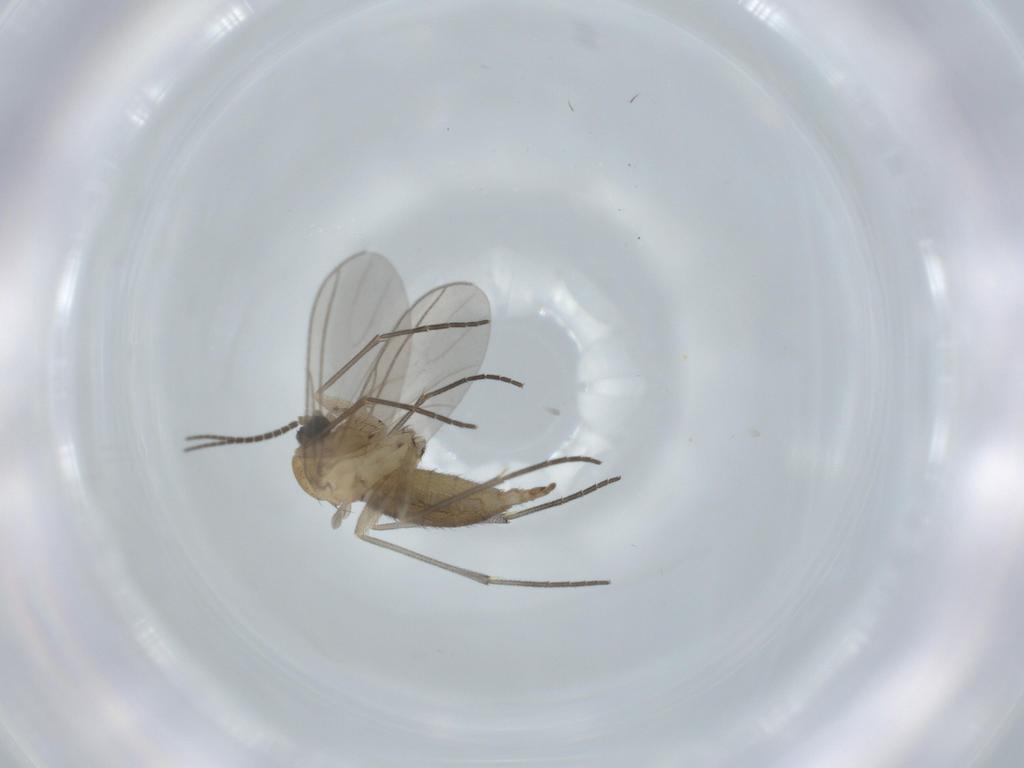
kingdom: Animalia
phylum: Arthropoda
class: Insecta
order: Diptera
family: Sciaridae
